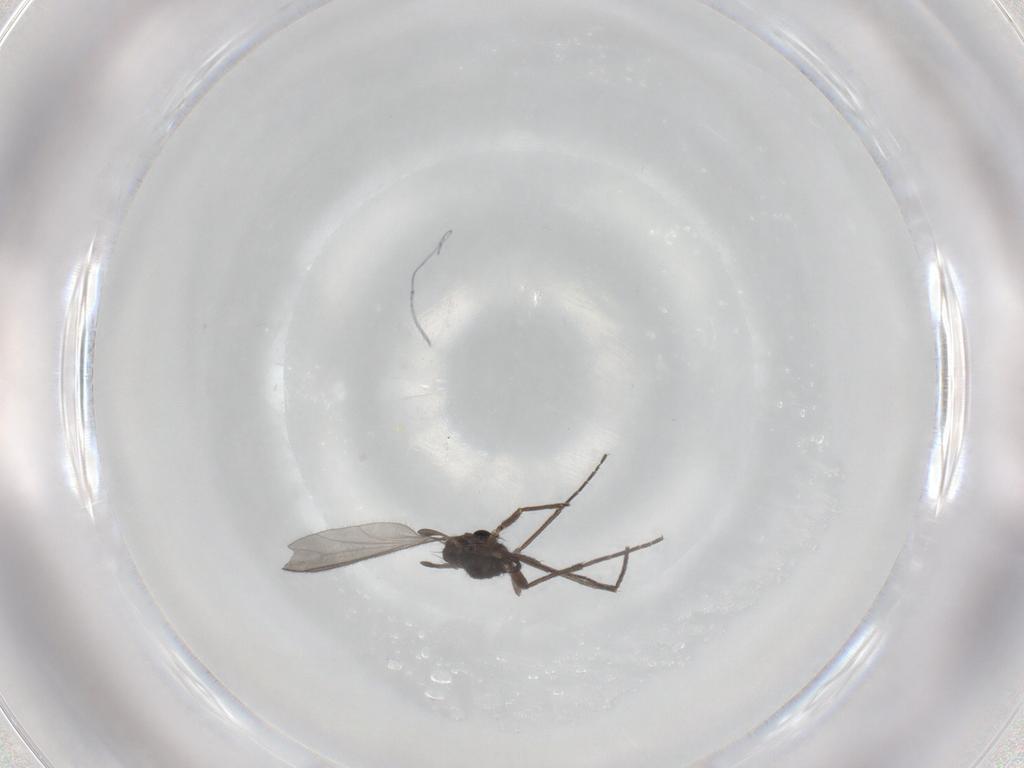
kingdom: Animalia
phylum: Arthropoda
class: Insecta
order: Diptera
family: Sciaridae
